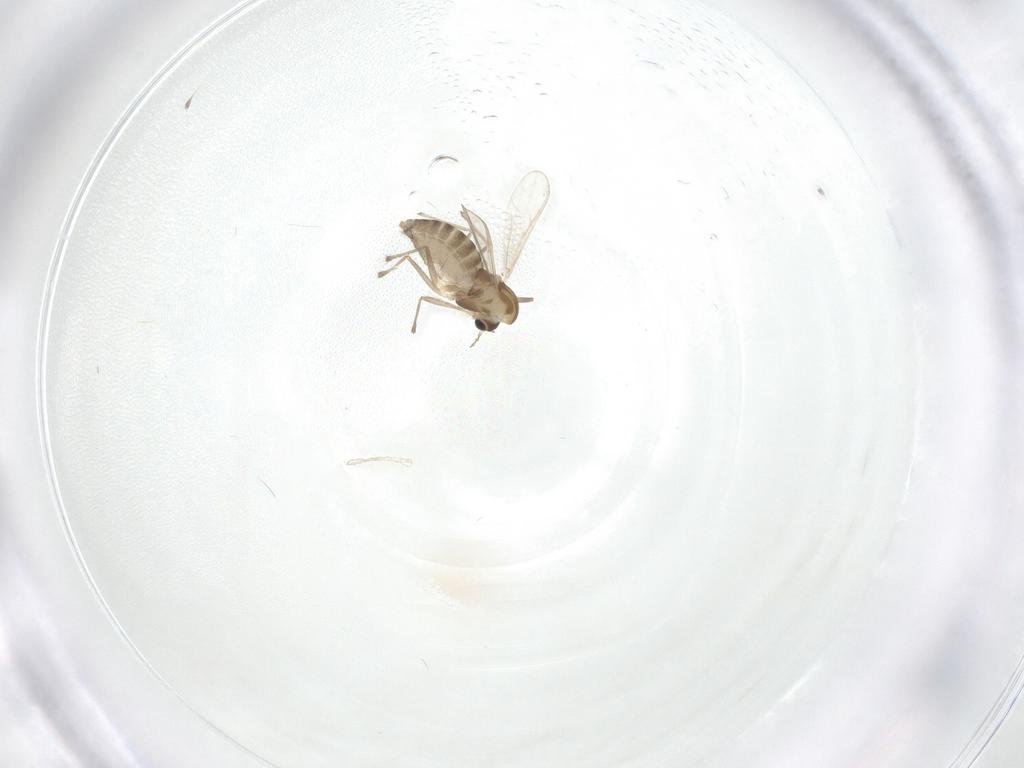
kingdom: Animalia
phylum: Arthropoda
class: Insecta
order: Diptera
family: Chironomidae
